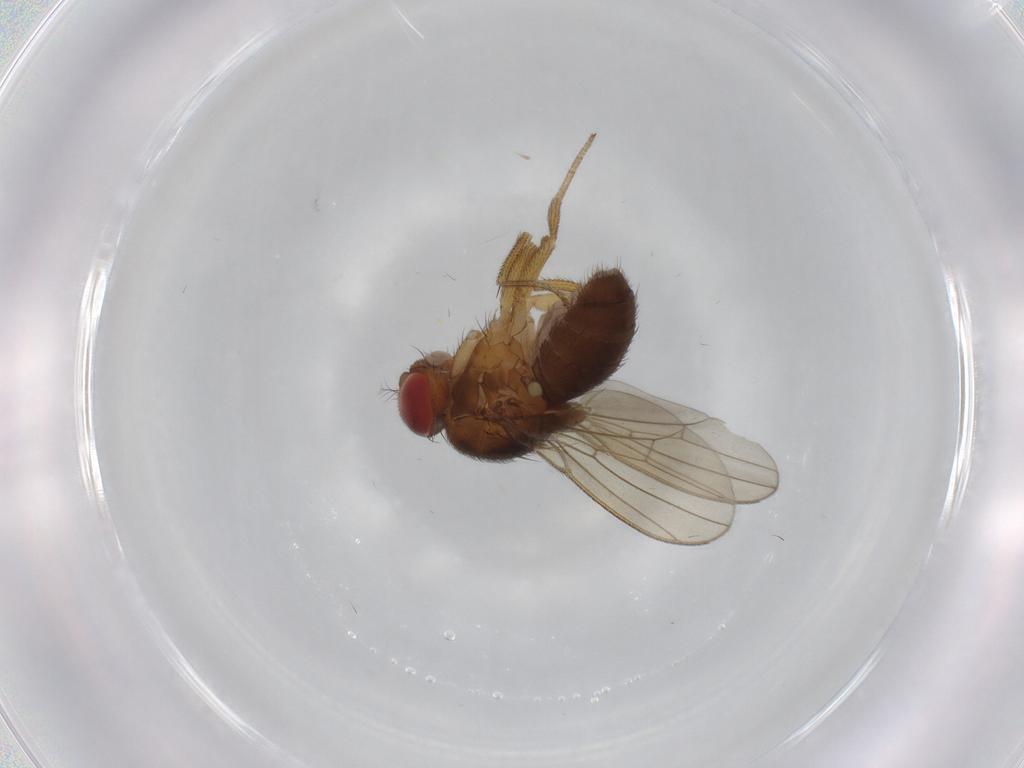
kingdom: Animalia
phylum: Arthropoda
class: Insecta
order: Diptera
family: Drosophilidae
